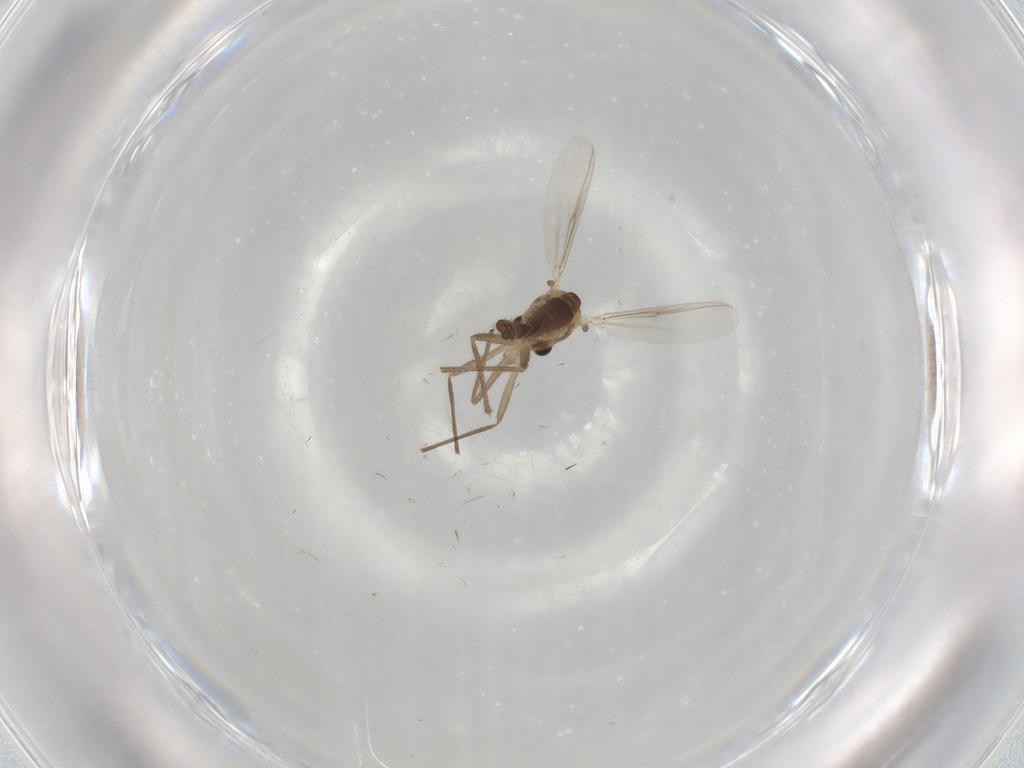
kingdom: Animalia
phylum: Arthropoda
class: Insecta
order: Diptera
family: Chironomidae
